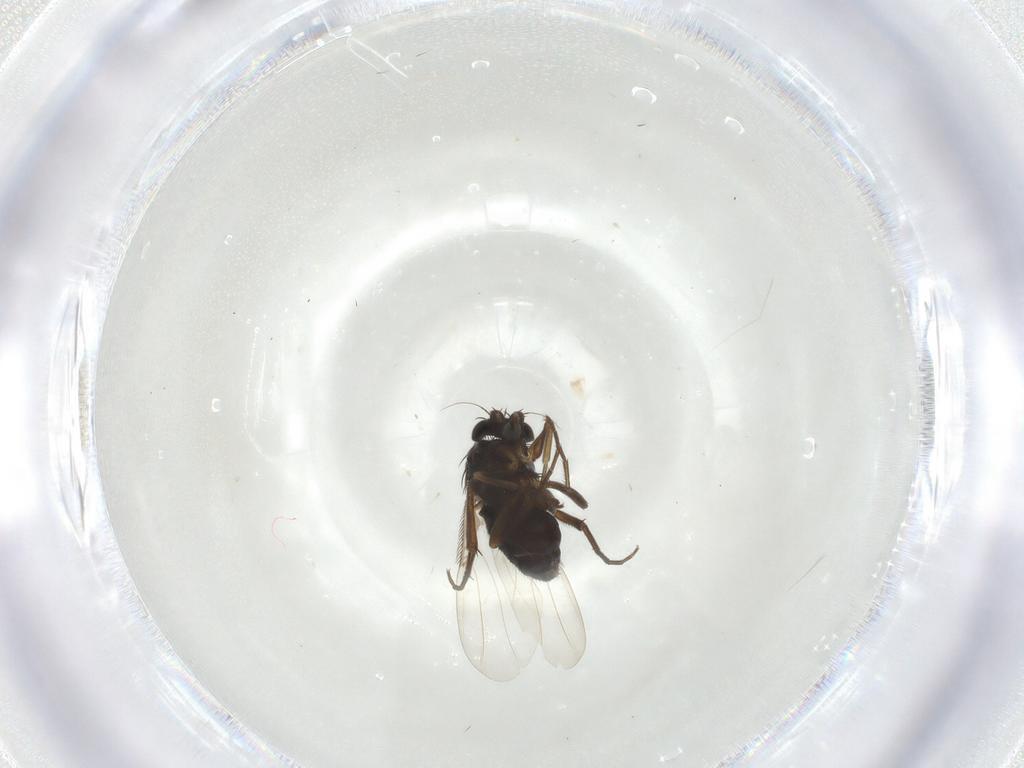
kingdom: Animalia
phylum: Arthropoda
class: Insecta
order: Diptera
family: Phoridae
